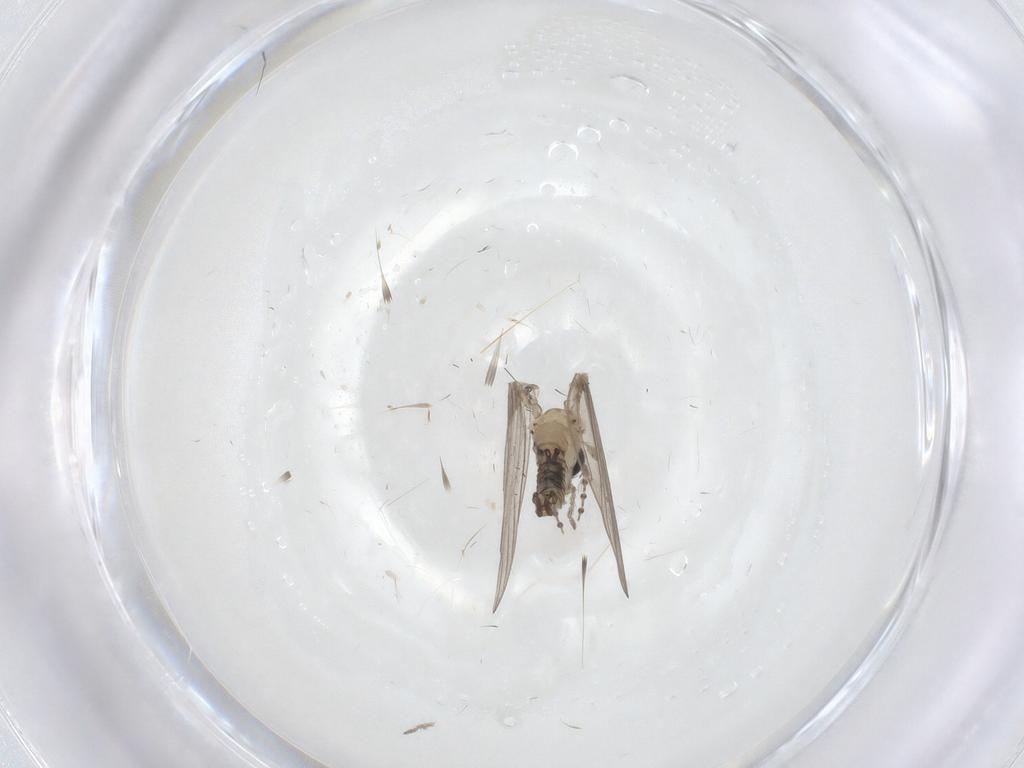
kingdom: Animalia
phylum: Arthropoda
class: Insecta
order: Diptera
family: Psychodidae
